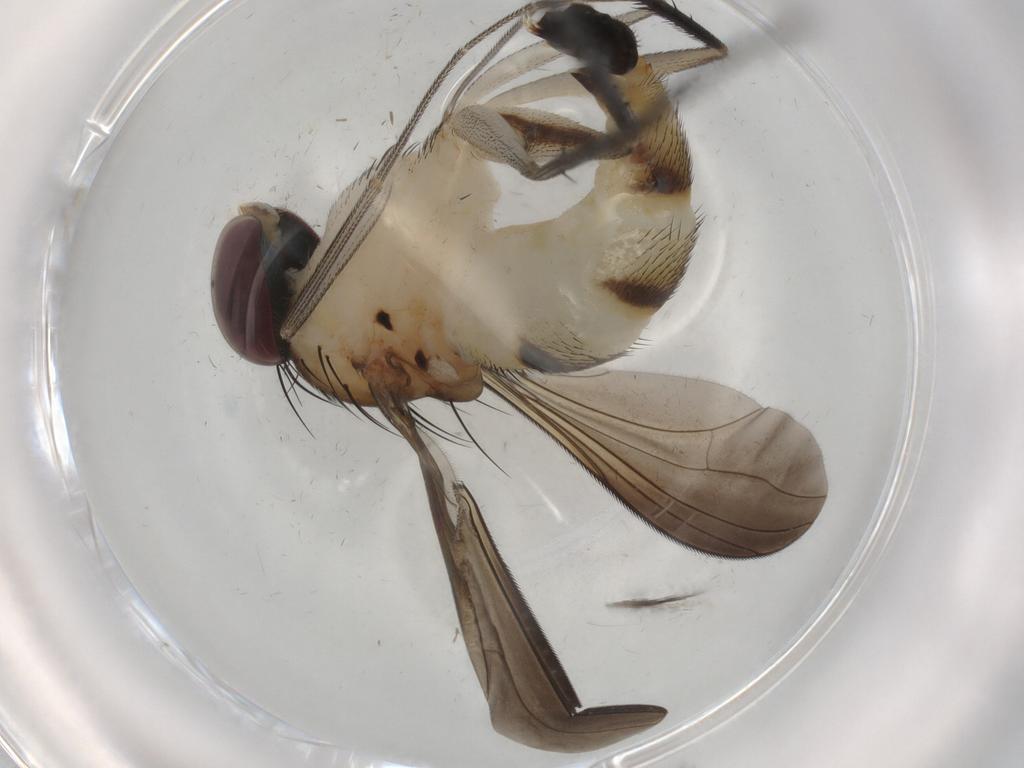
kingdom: Animalia
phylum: Arthropoda
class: Insecta
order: Diptera
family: Dolichopodidae
